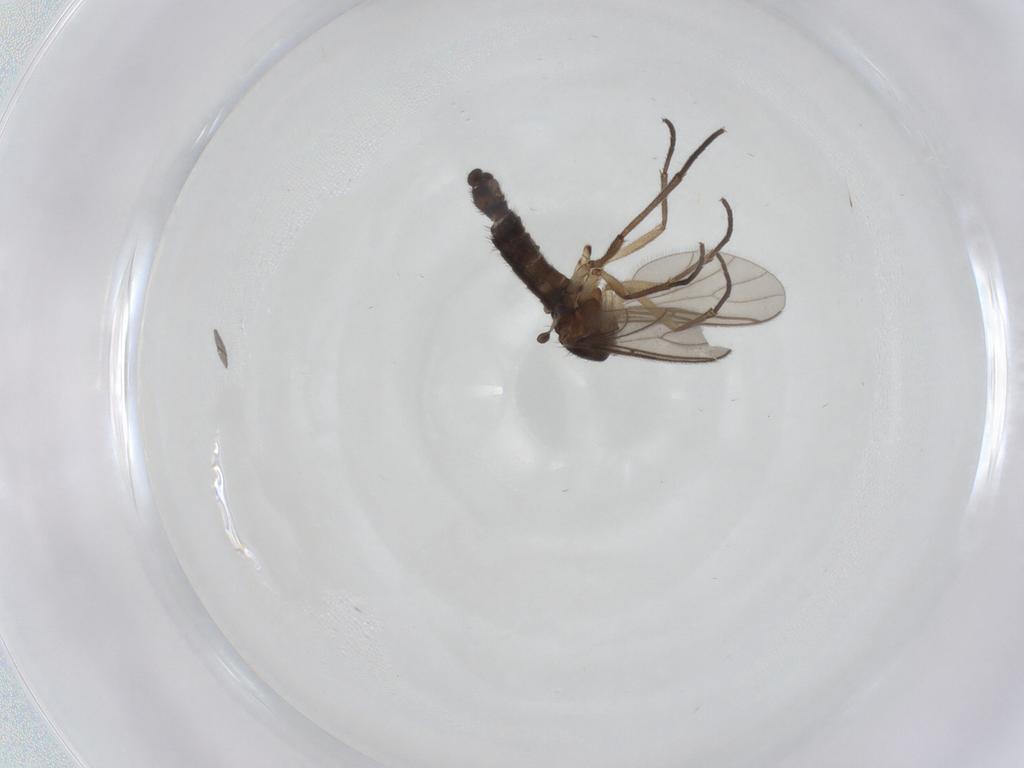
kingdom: Animalia
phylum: Arthropoda
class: Insecta
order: Diptera
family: Sciaridae
